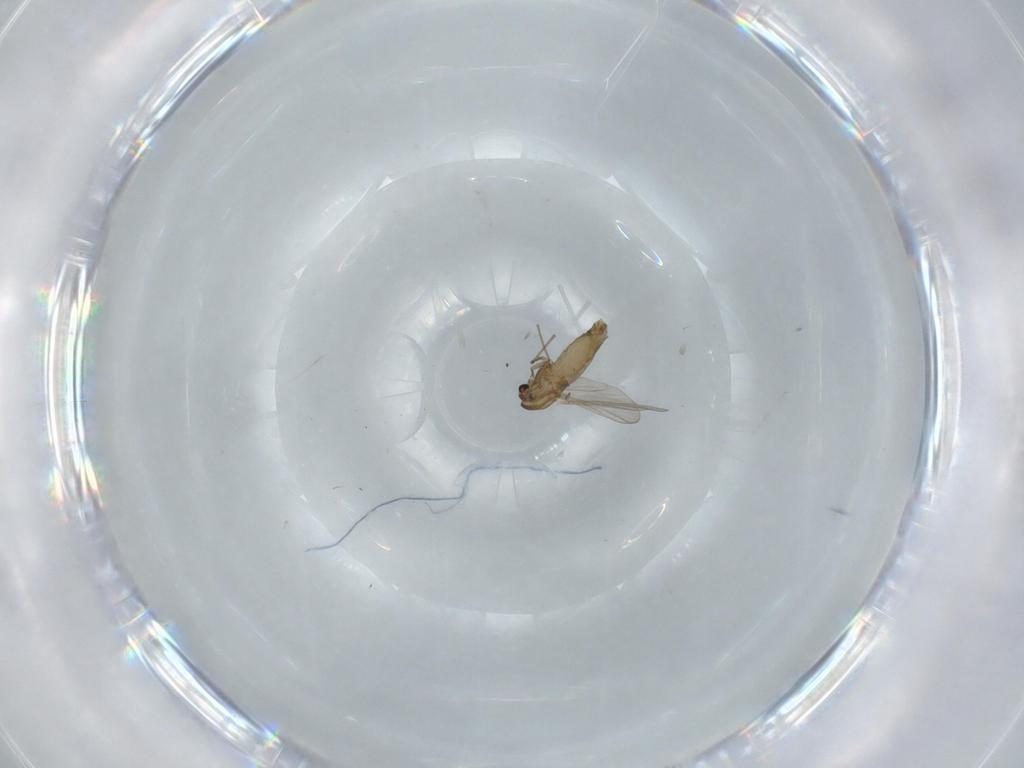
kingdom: Animalia
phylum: Arthropoda
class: Insecta
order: Diptera
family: Chironomidae
